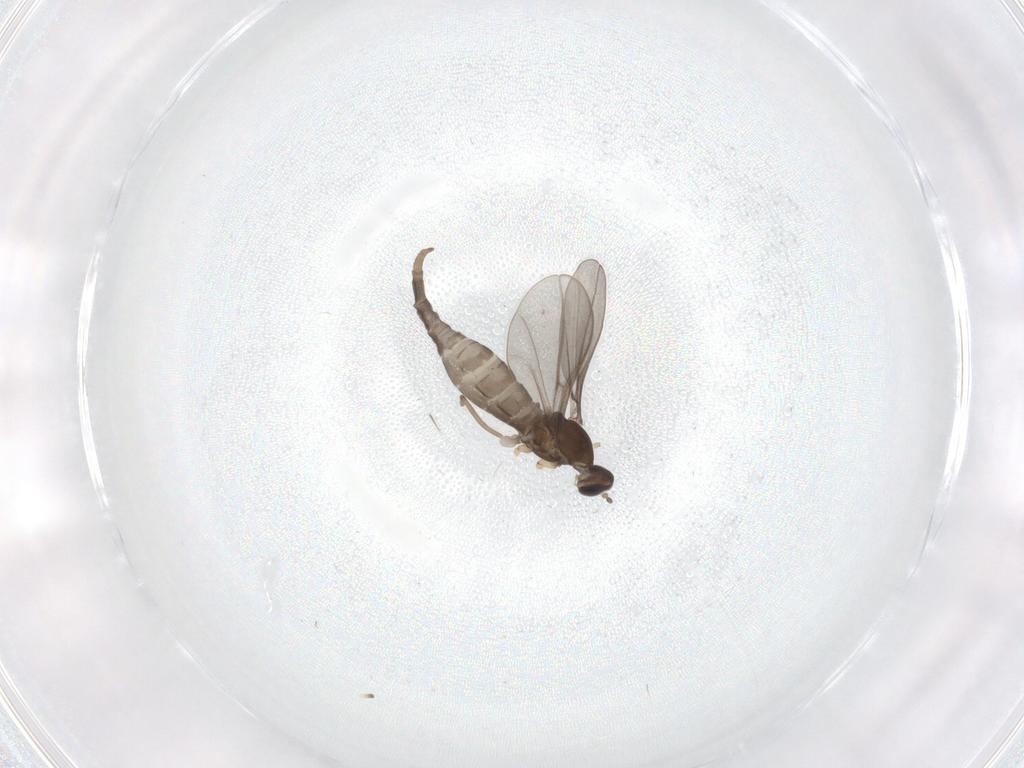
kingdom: Animalia
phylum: Arthropoda
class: Insecta
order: Diptera
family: Cecidomyiidae
